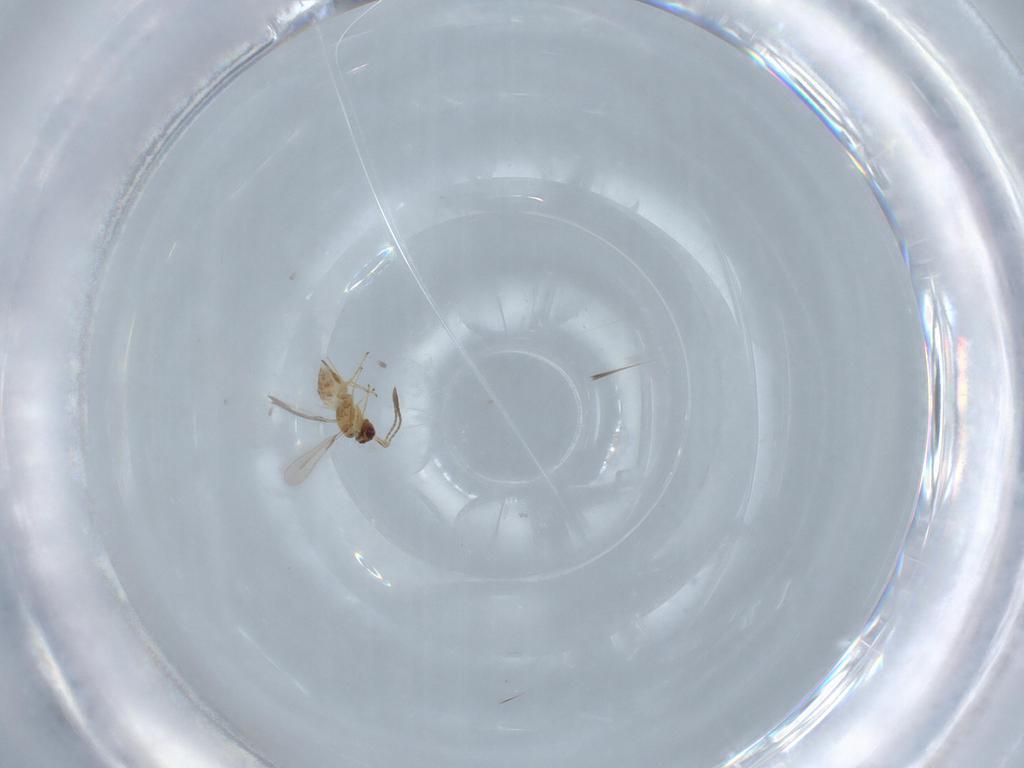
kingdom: Animalia
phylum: Arthropoda
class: Insecta
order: Hymenoptera
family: Mymaridae
